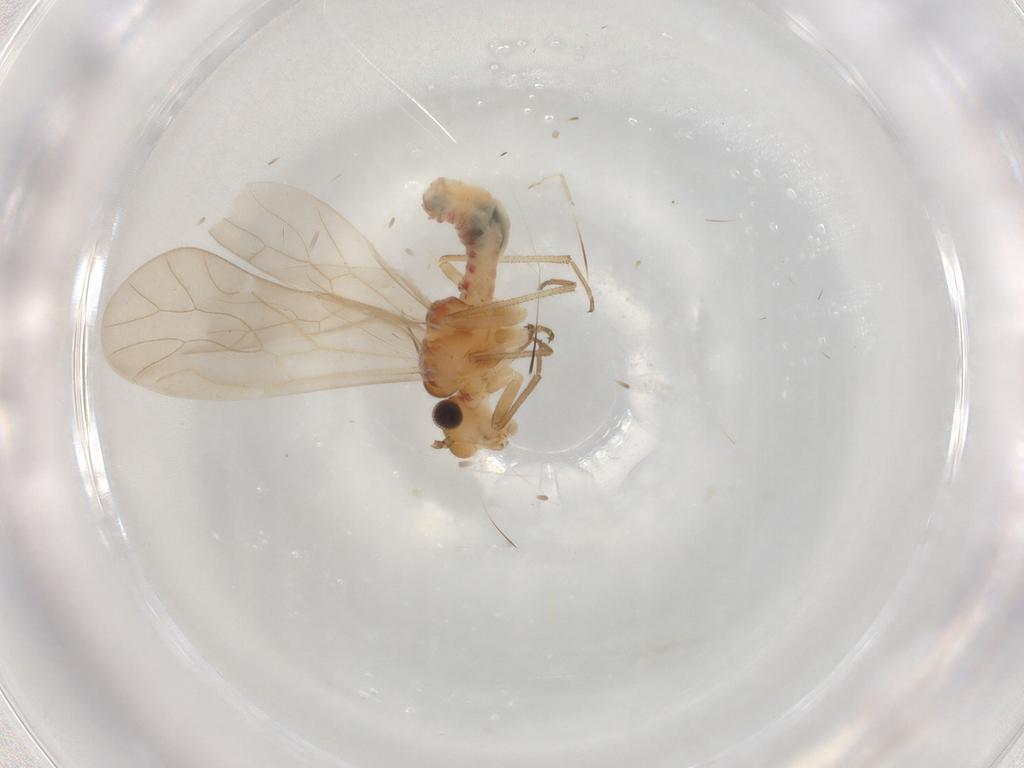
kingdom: Animalia
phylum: Arthropoda
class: Insecta
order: Psocodea
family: Caeciliusidae
